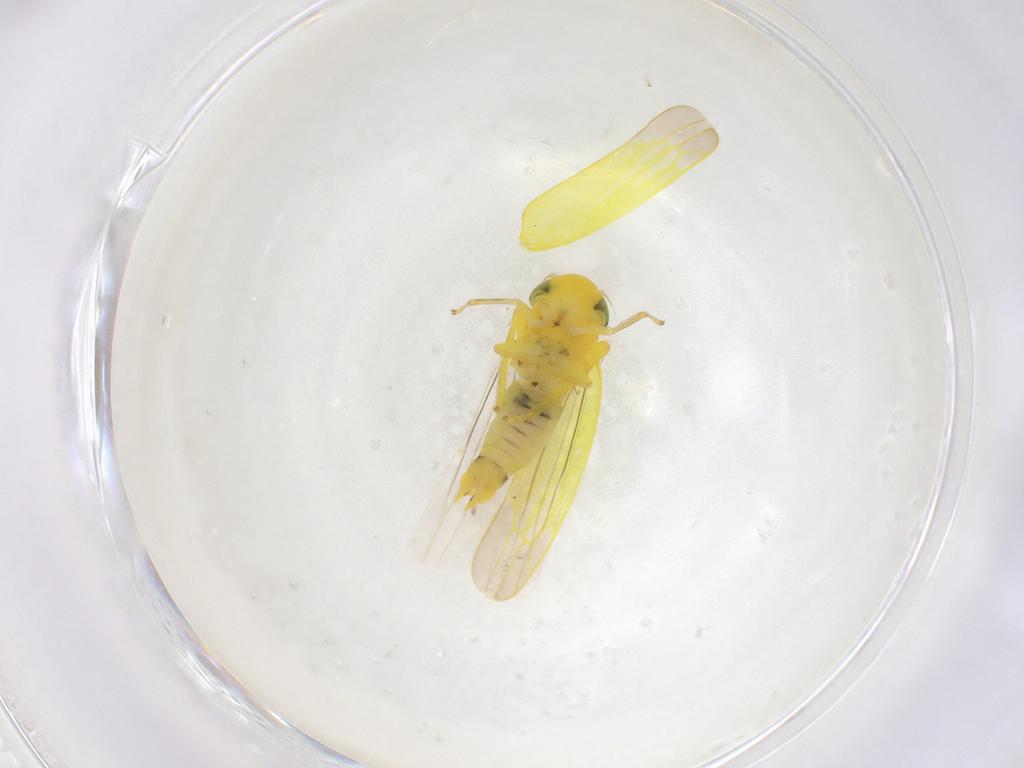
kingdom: Animalia
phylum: Arthropoda
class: Insecta
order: Hemiptera
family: Cicadellidae
